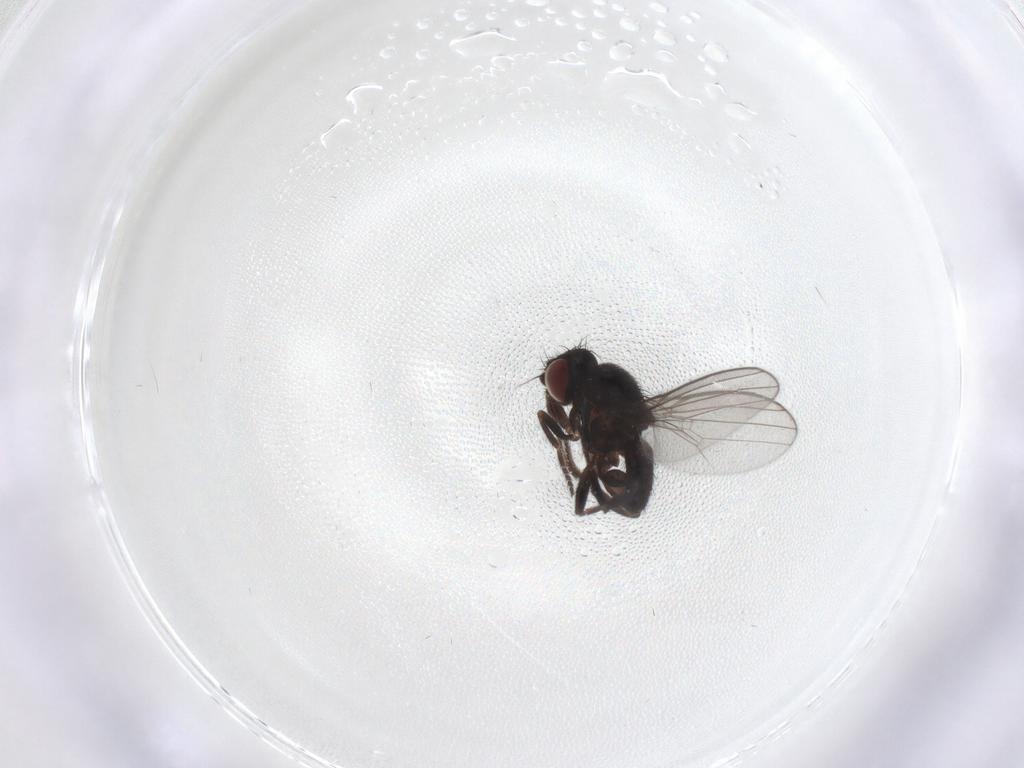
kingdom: Animalia
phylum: Arthropoda
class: Insecta
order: Diptera
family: Milichiidae
